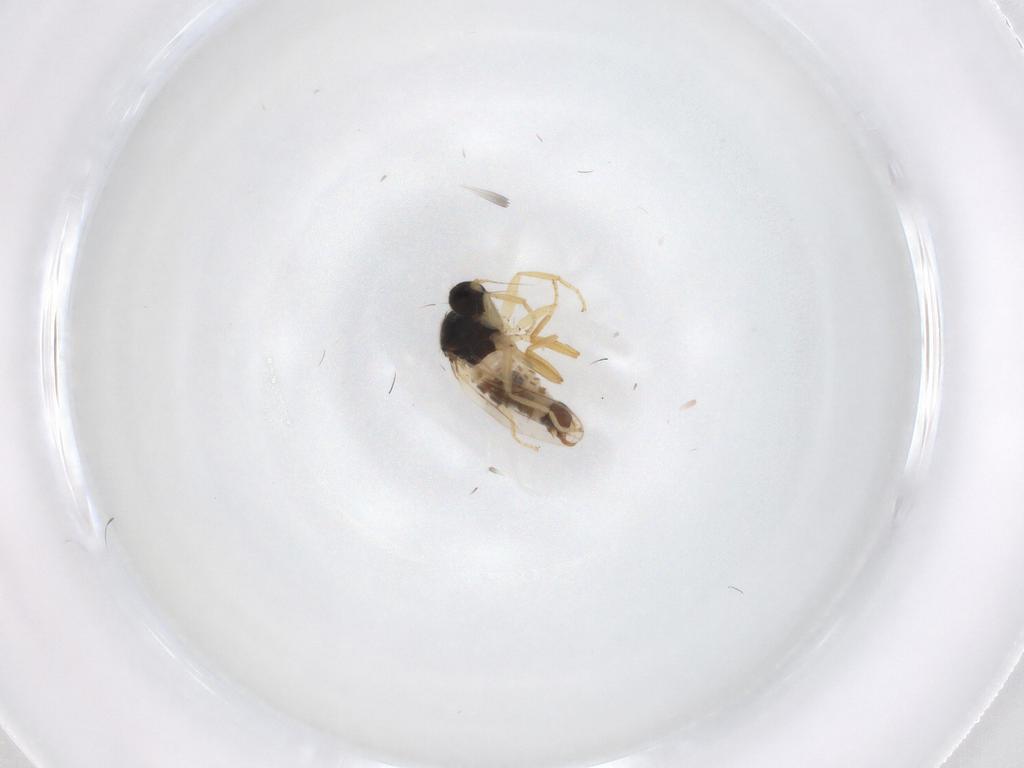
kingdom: Animalia
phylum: Arthropoda
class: Insecta
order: Diptera
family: Hybotidae
